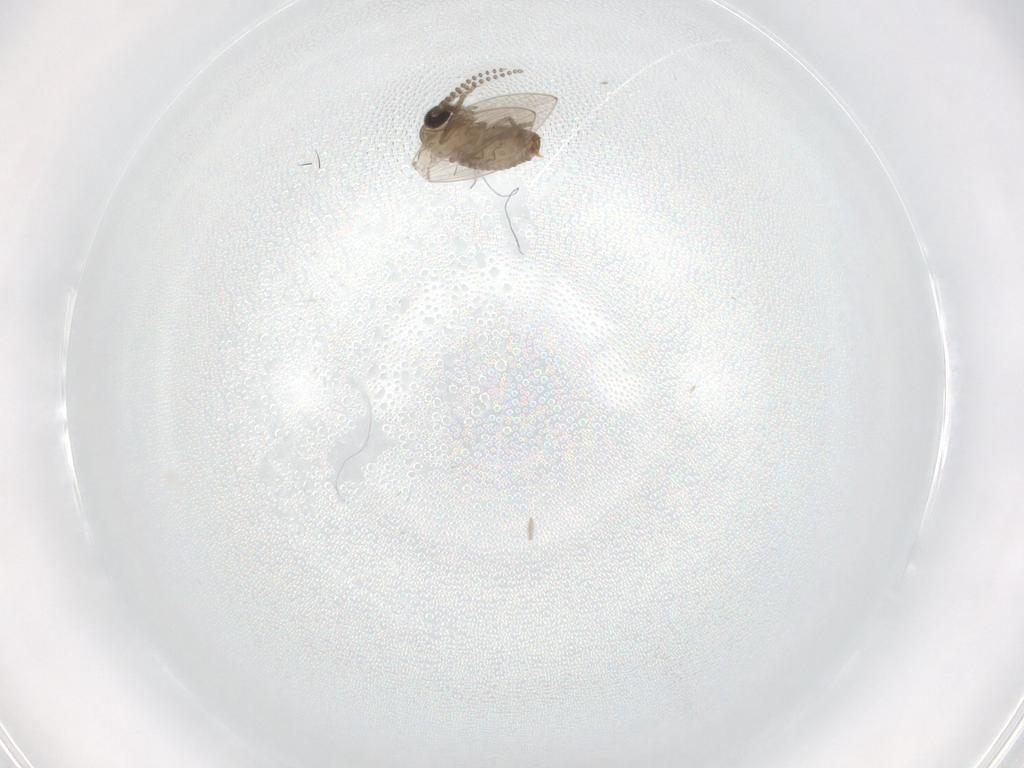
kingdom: Animalia
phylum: Arthropoda
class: Insecta
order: Diptera
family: Psychodidae
